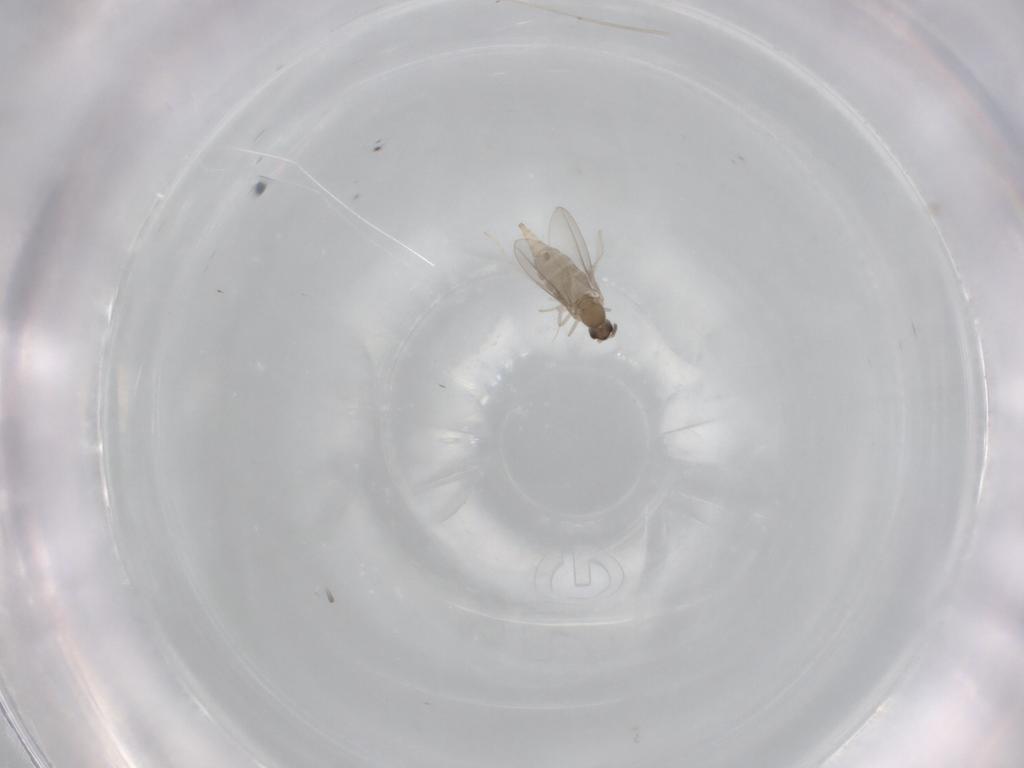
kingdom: Animalia
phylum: Arthropoda
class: Insecta
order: Diptera
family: Cecidomyiidae
